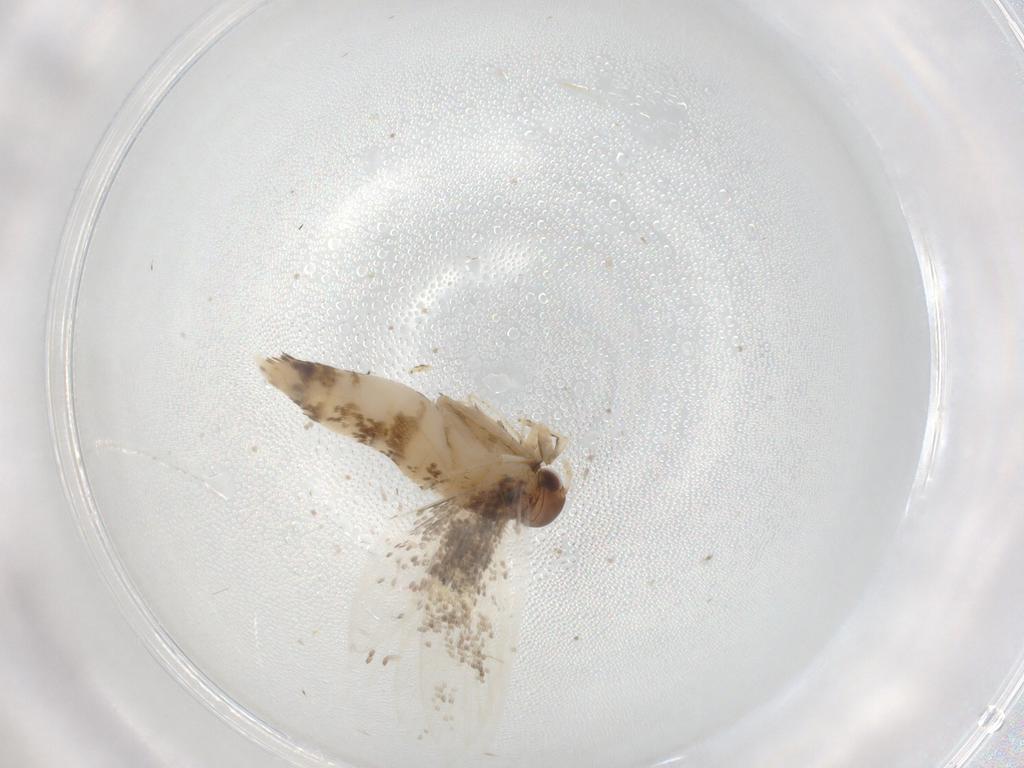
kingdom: Animalia
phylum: Arthropoda
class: Insecta
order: Lepidoptera
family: Oecophoridae
